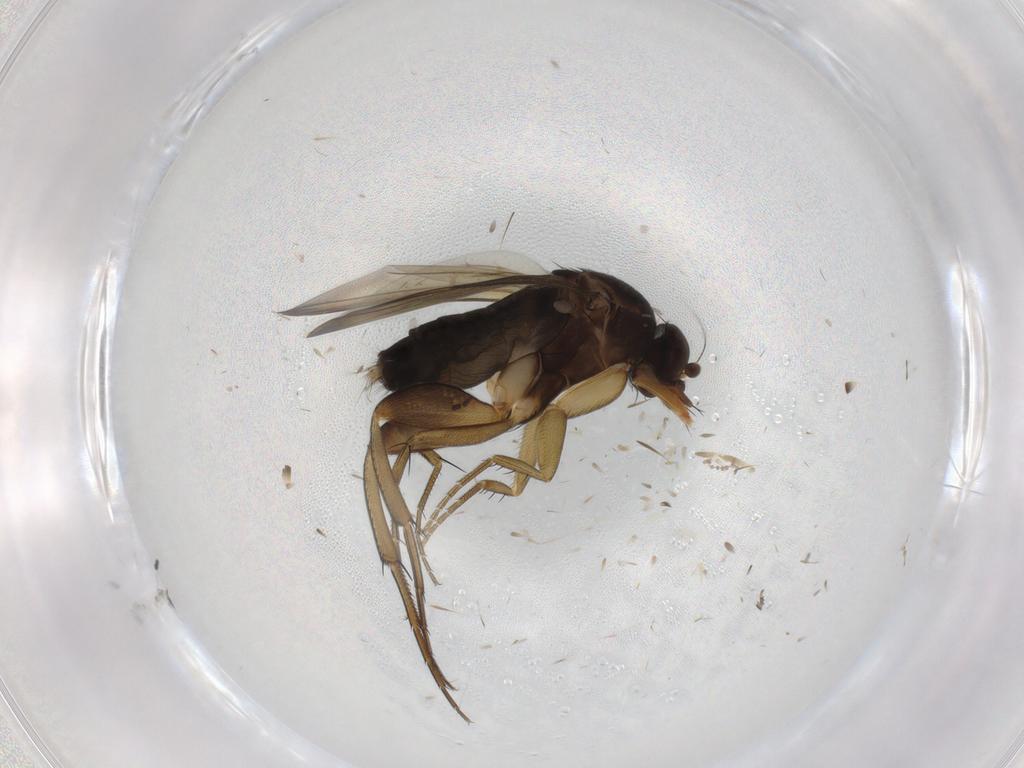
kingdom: Animalia
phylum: Arthropoda
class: Insecta
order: Diptera
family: Phoridae
